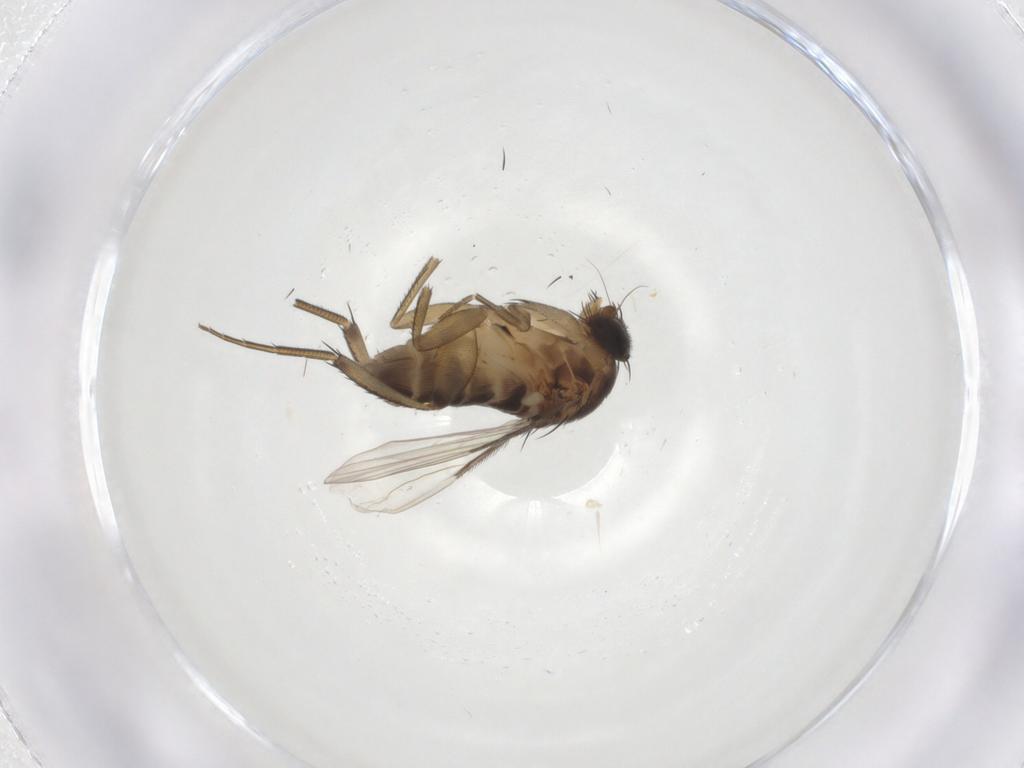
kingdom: Animalia
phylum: Arthropoda
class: Insecta
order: Diptera
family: Phoridae
